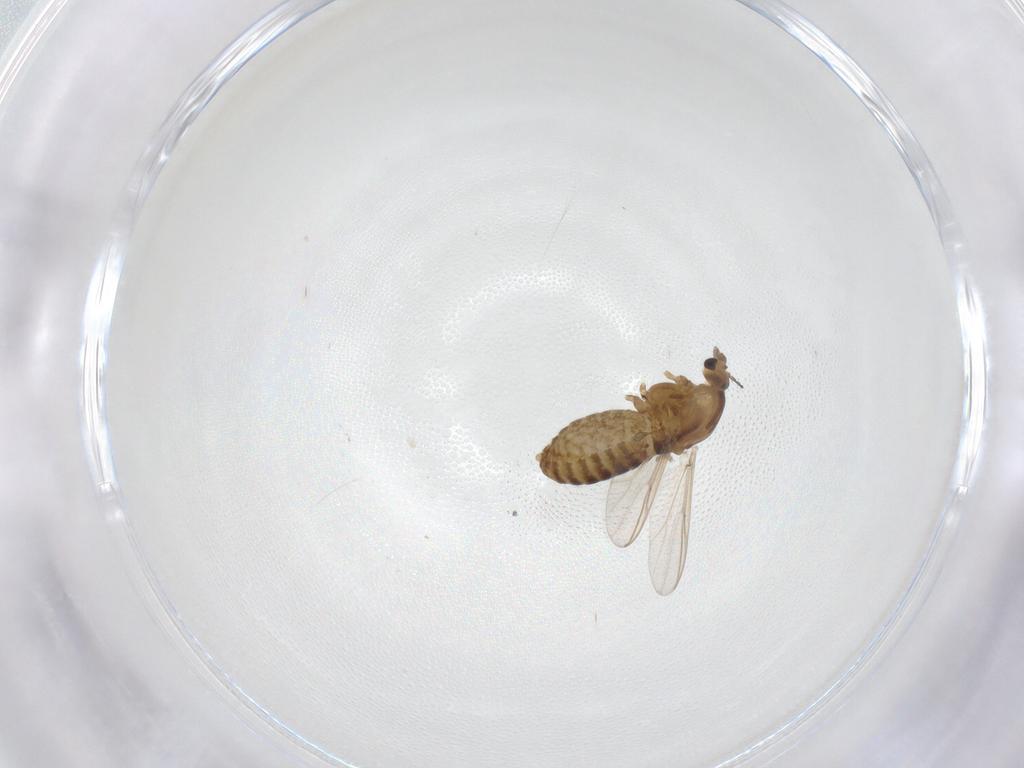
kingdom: Animalia
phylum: Arthropoda
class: Insecta
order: Diptera
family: Chironomidae
